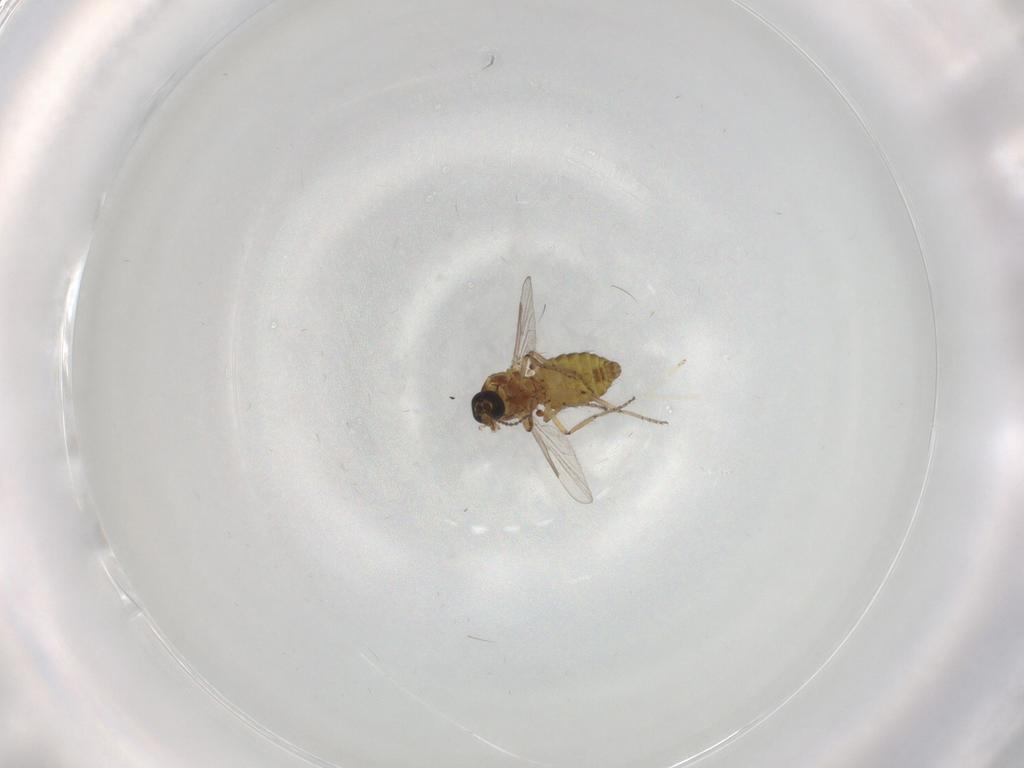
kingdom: Animalia
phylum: Arthropoda
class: Insecta
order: Diptera
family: Ceratopogonidae
